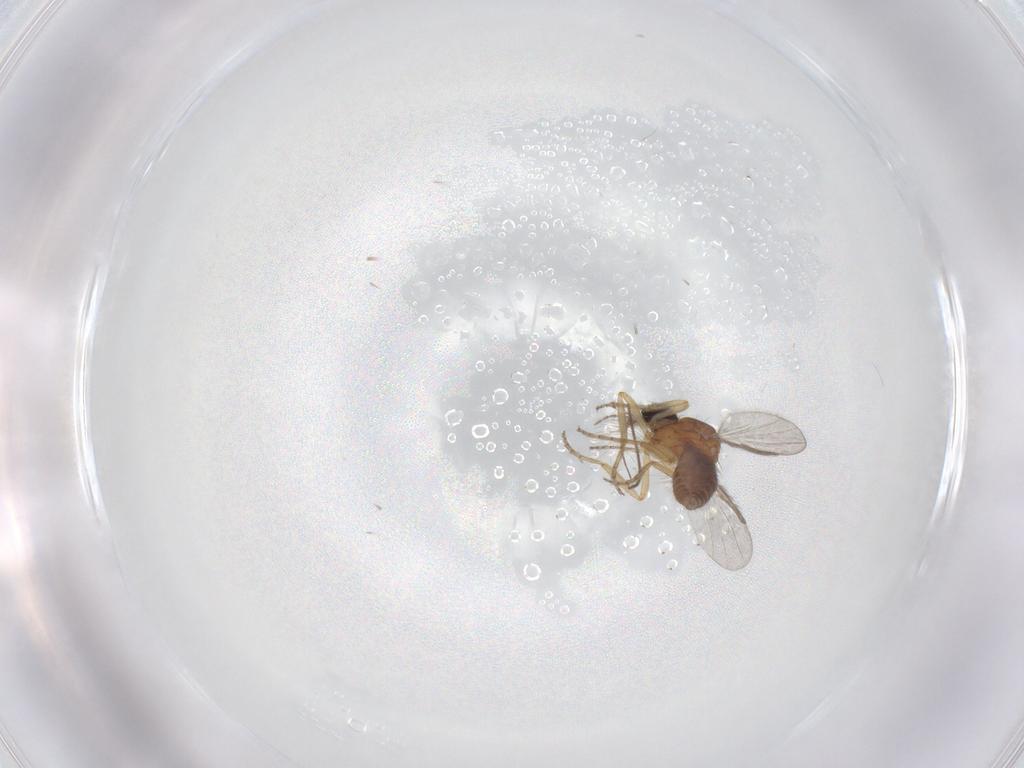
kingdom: Animalia
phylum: Arthropoda
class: Insecta
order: Diptera
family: Ceratopogonidae
